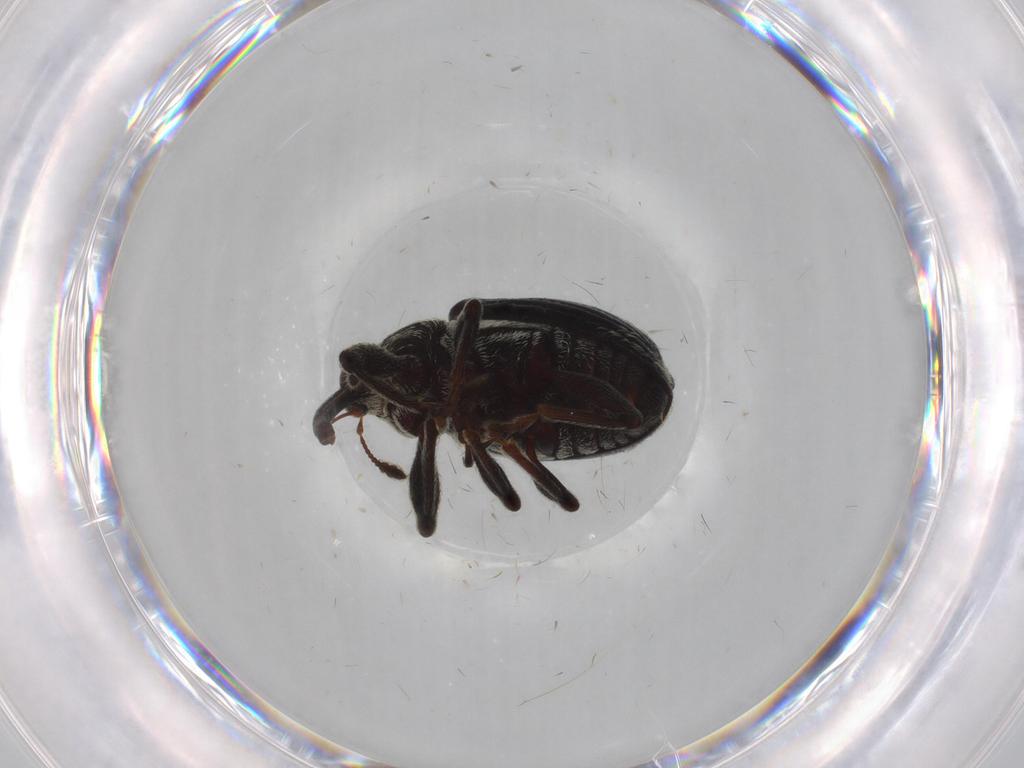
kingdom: Animalia
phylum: Arthropoda
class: Insecta
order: Coleoptera
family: Curculionidae
